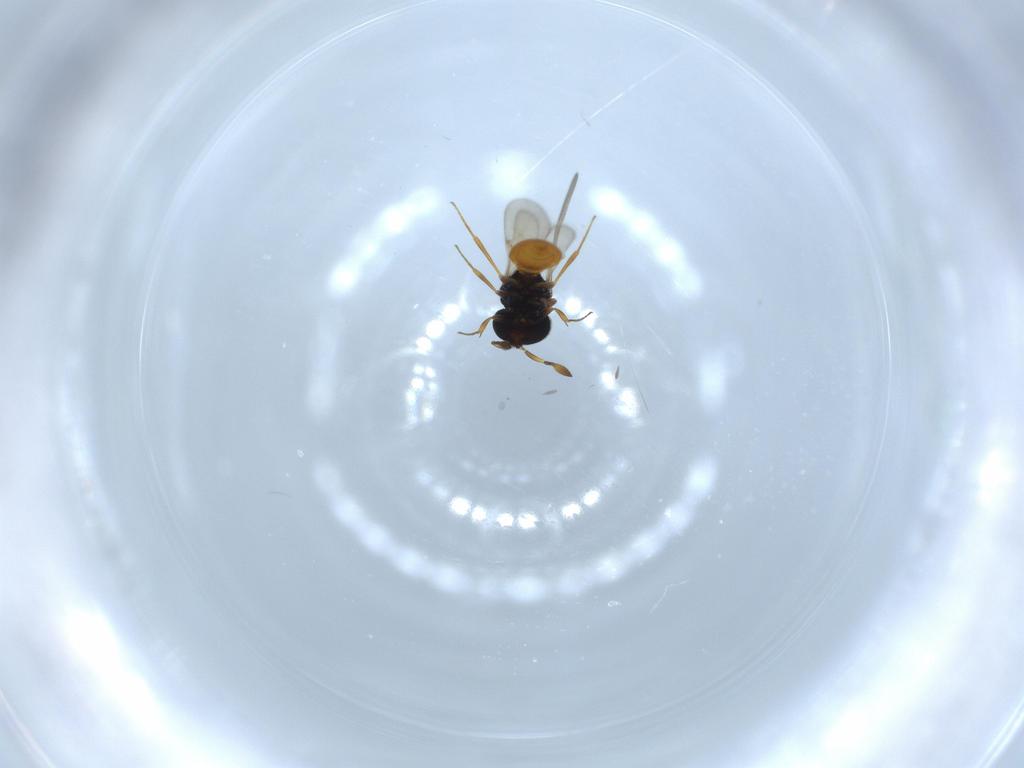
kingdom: Animalia
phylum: Arthropoda
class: Insecta
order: Hymenoptera
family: Scelionidae
